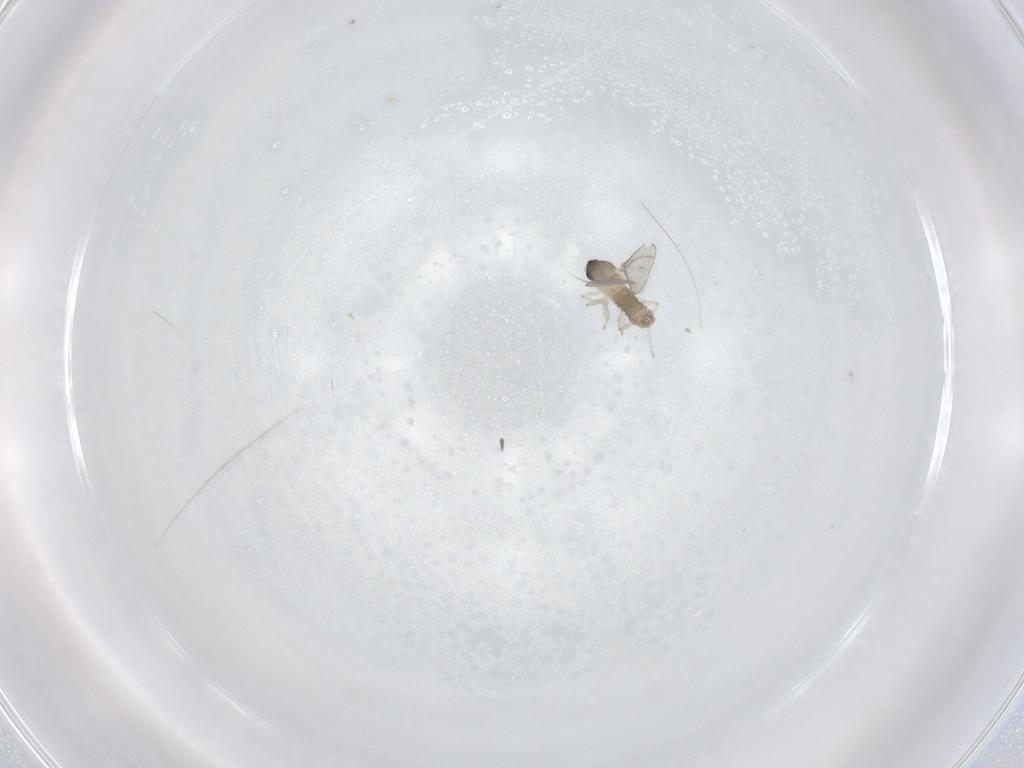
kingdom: Animalia
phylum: Arthropoda
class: Insecta
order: Diptera
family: Cecidomyiidae
